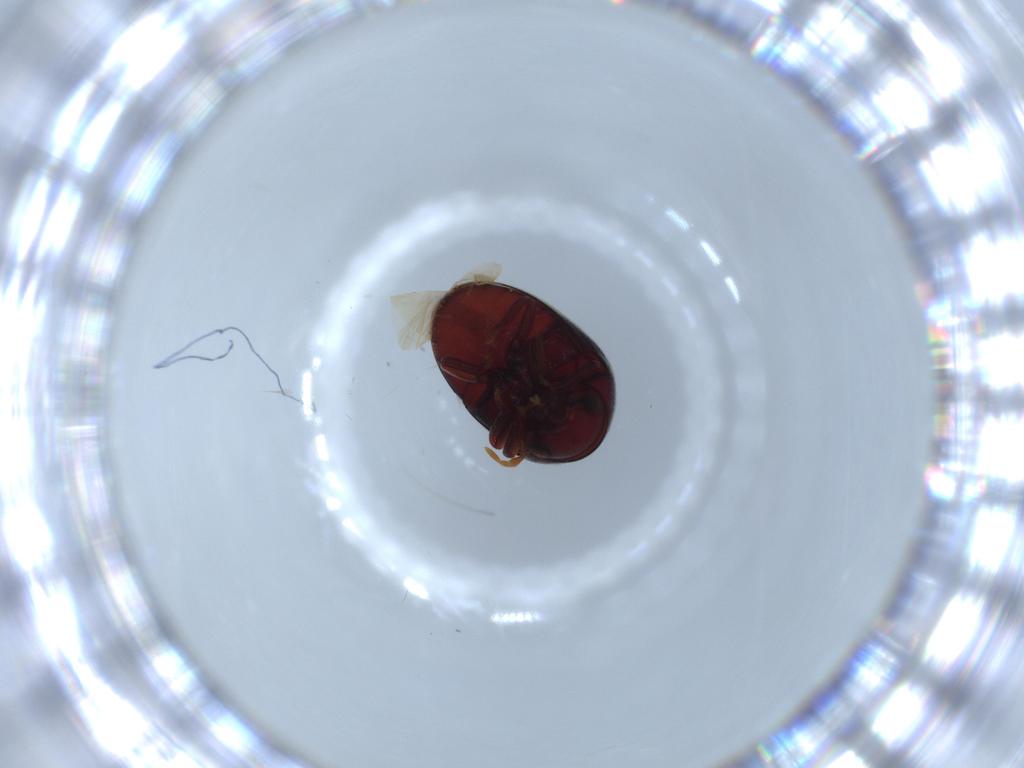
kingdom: Animalia
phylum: Arthropoda
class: Insecta
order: Coleoptera
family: Ptinidae
